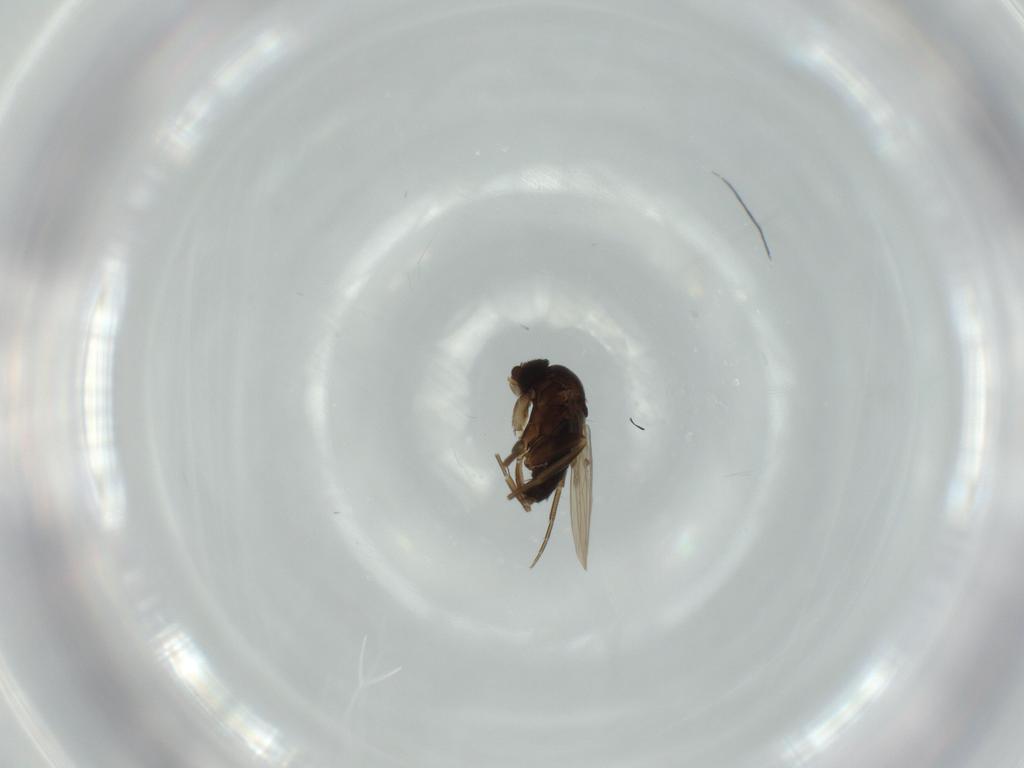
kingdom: Animalia
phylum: Arthropoda
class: Insecta
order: Diptera
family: Phoridae
